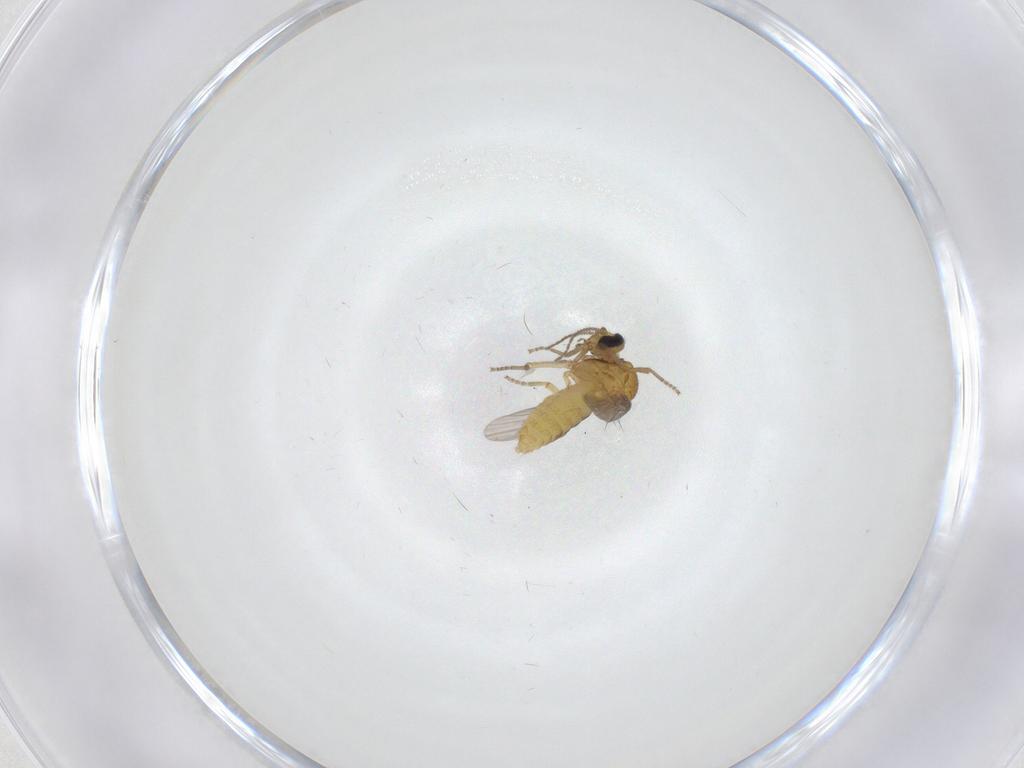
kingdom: Animalia
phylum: Arthropoda
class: Insecta
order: Diptera
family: Ceratopogonidae
